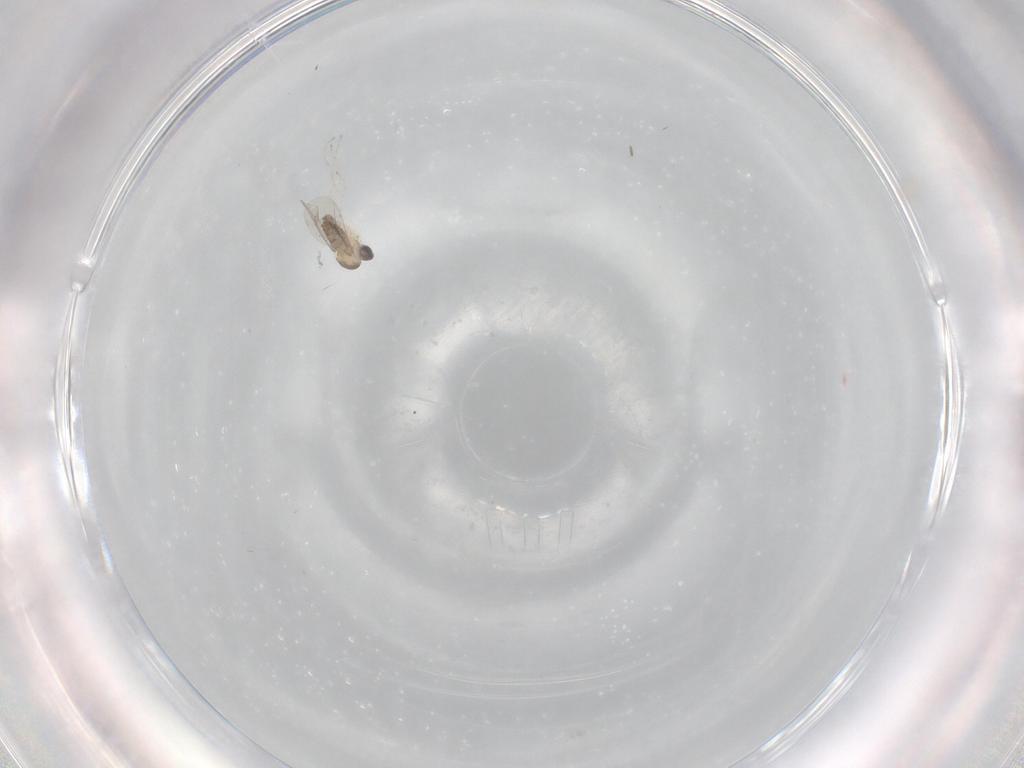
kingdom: Animalia
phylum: Arthropoda
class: Insecta
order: Diptera
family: Cecidomyiidae
